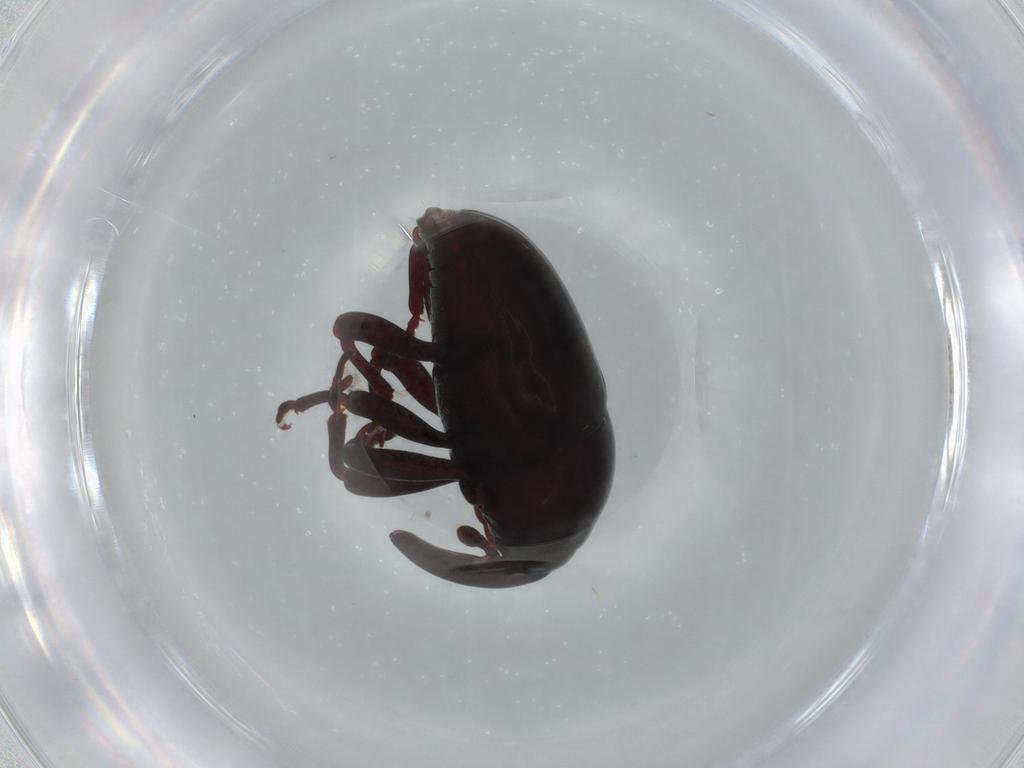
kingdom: Animalia
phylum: Arthropoda
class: Insecta
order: Coleoptera
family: Curculionidae
